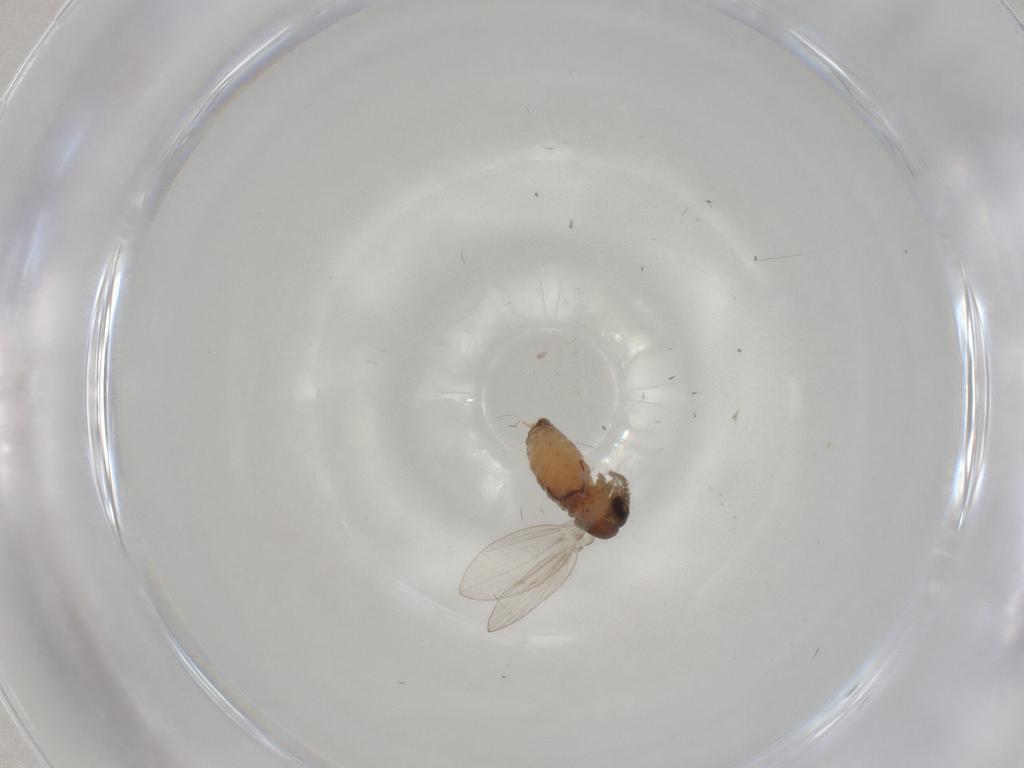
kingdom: Animalia
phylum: Arthropoda
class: Insecta
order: Diptera
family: Psychodidae
